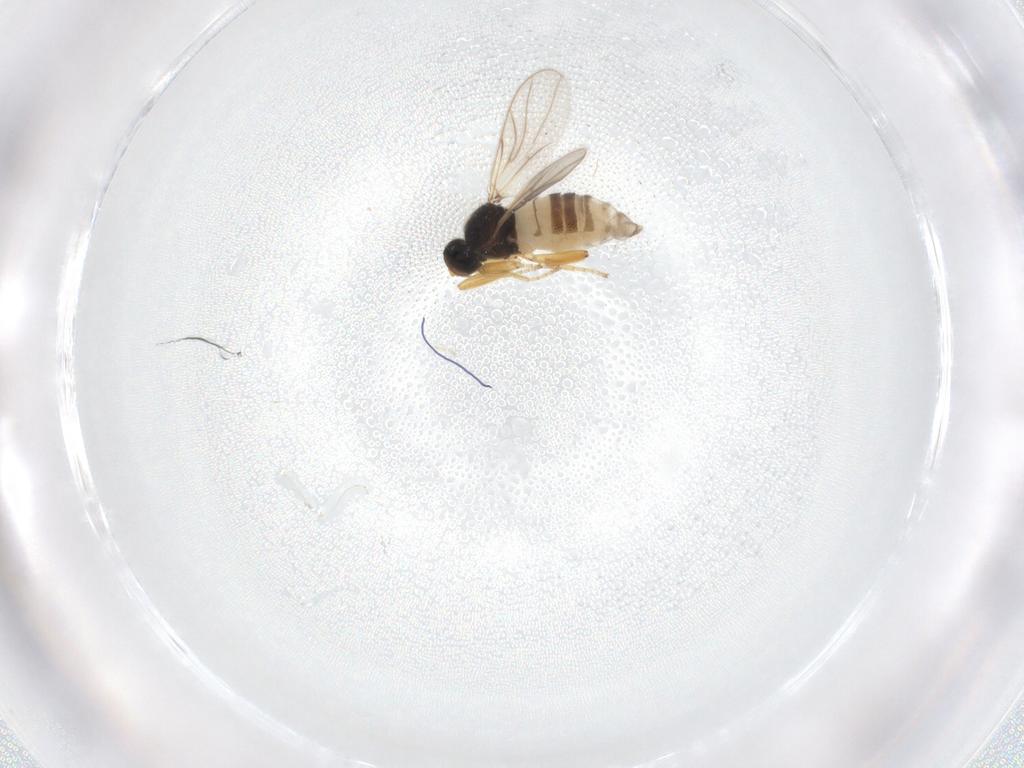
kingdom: Animalia
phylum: Arthropoda
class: Insecta
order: Diptera
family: Hybotidae
